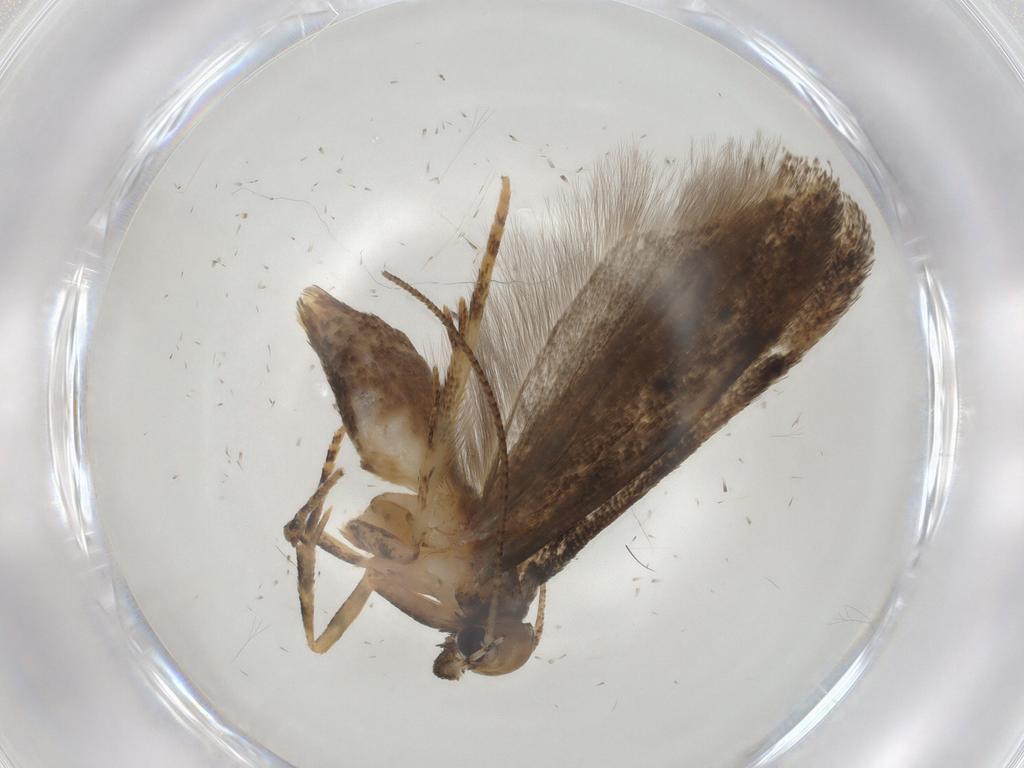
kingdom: Animalia
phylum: Arthropoda
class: Insecta
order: Lepidoptera
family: Gelechiidae
